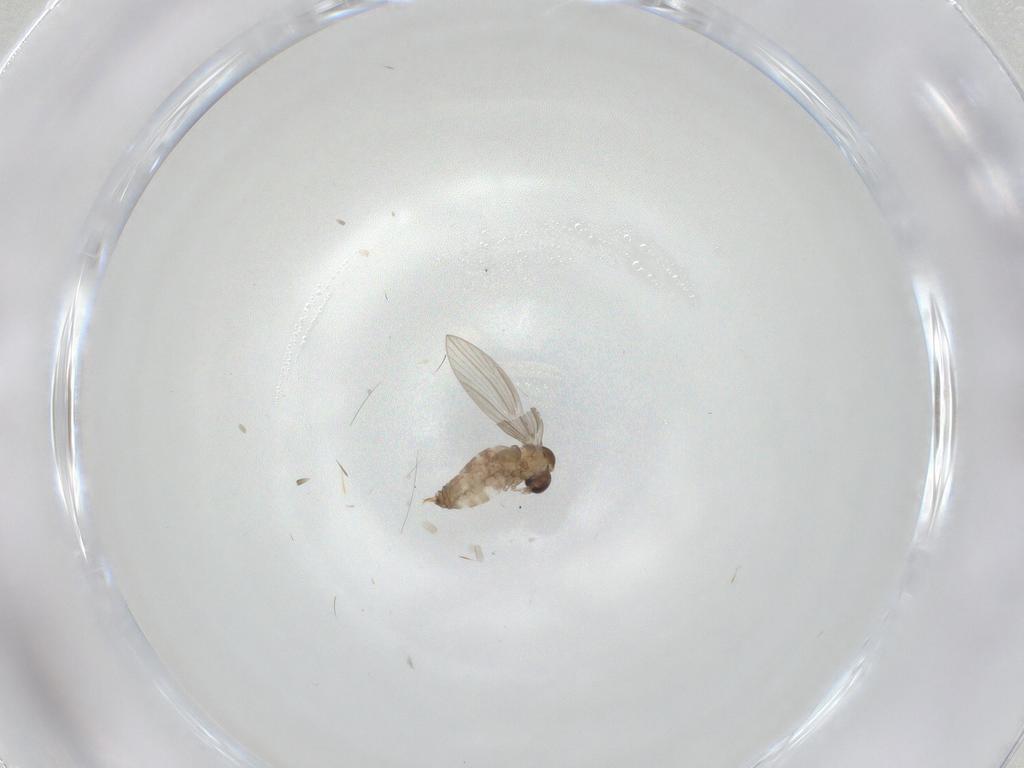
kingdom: Animalia
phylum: Arthropoda
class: Insecta
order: Diptera
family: Psychodidae
